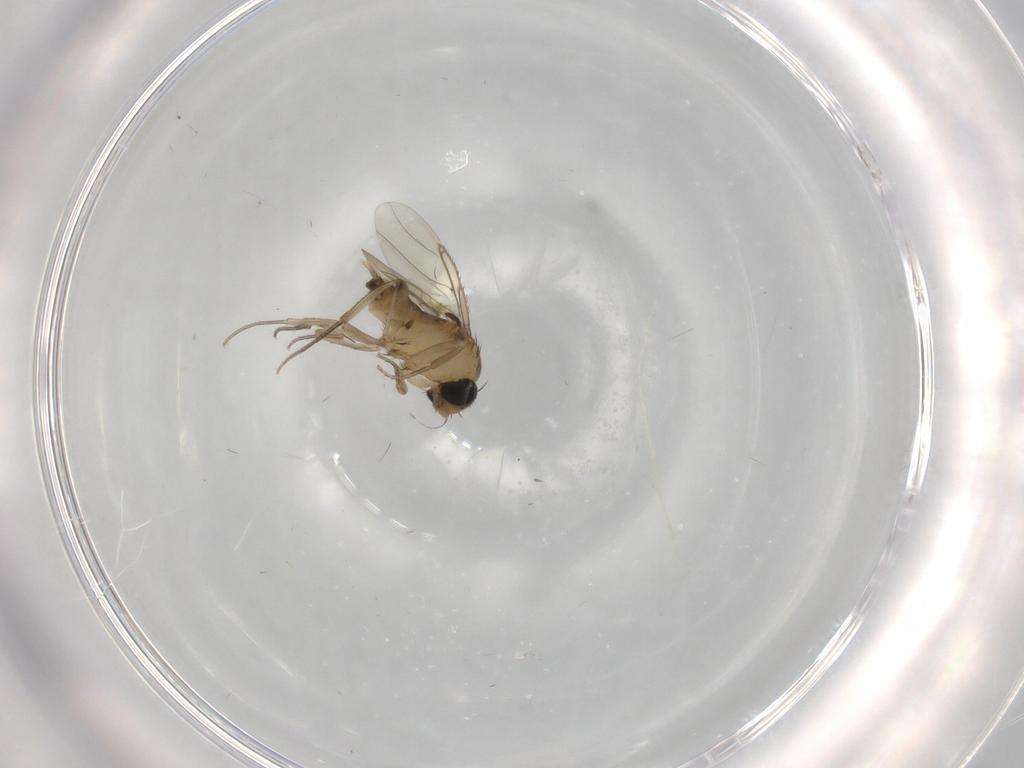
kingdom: Animalia
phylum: Arthropoda
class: Insecta
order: Diptera
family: Phoridae
